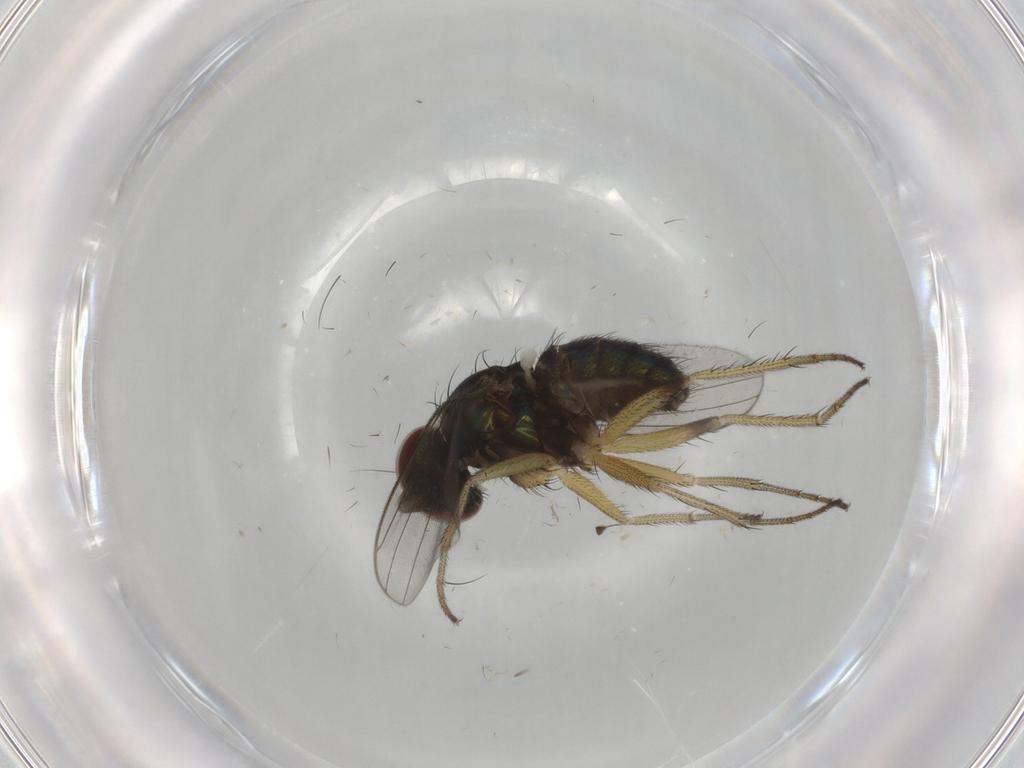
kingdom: Animalia
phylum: Arthropoda
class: Insecta
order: Diptera
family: Dolichopodidae
